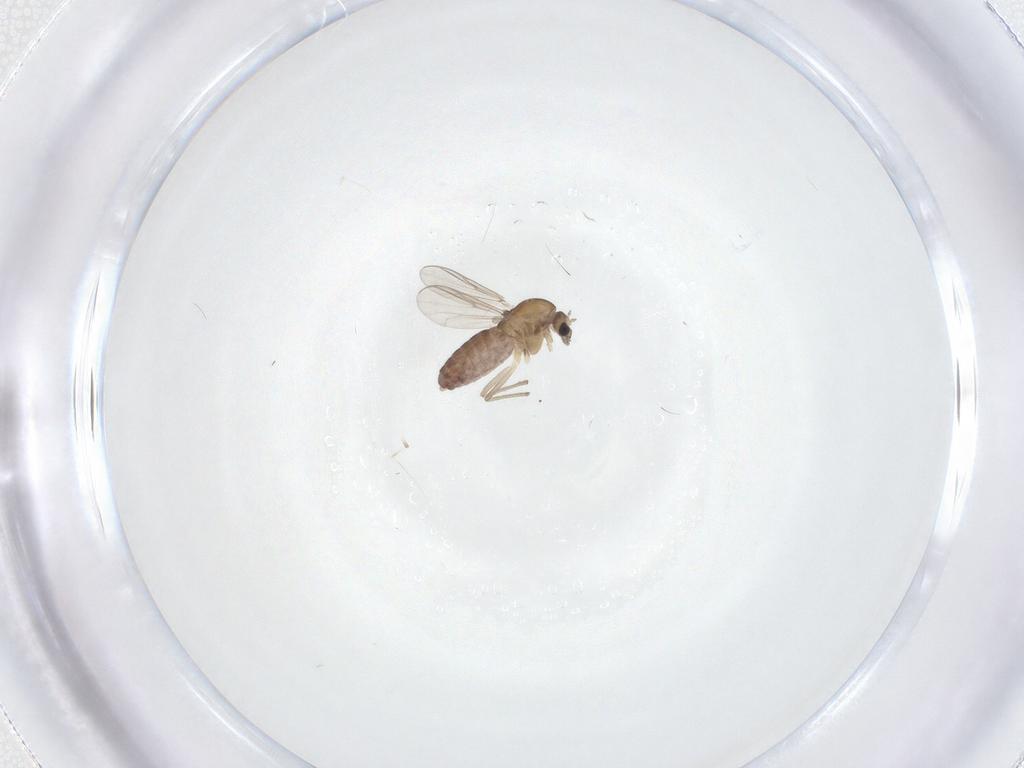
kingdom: Animalia
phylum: Arthropoda
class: Insecta
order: Diptera
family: Chironomidae
